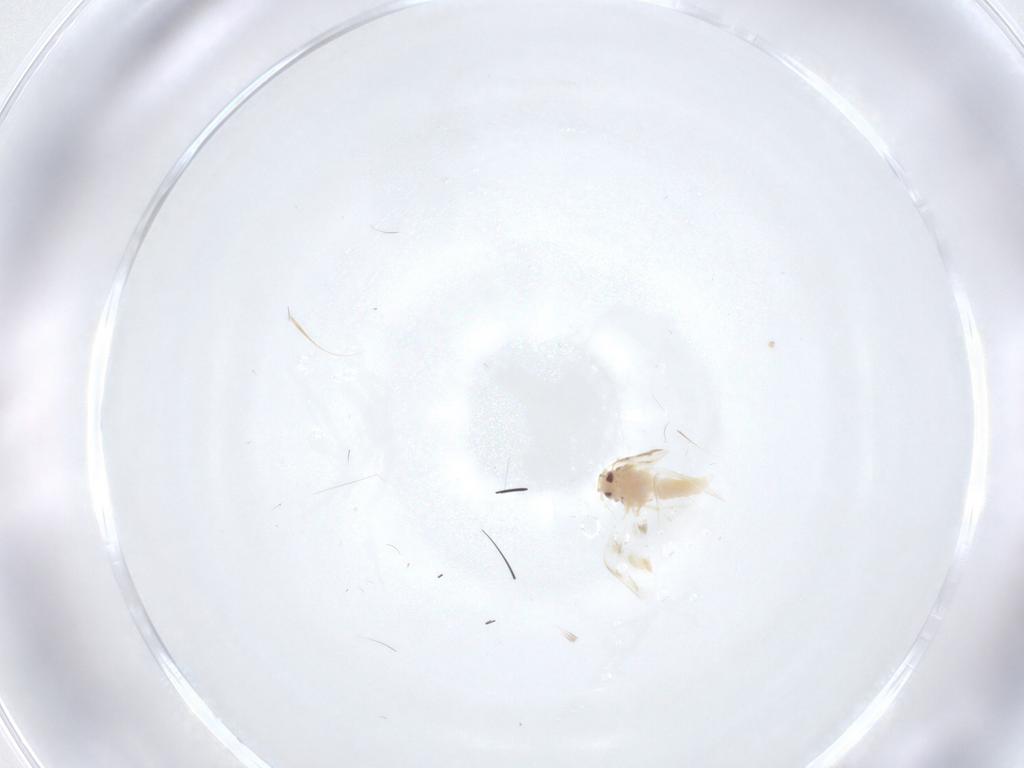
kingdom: Animalia
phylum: Arthropoda
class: Insecta
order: Hemiptera
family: Aleyrodidae
